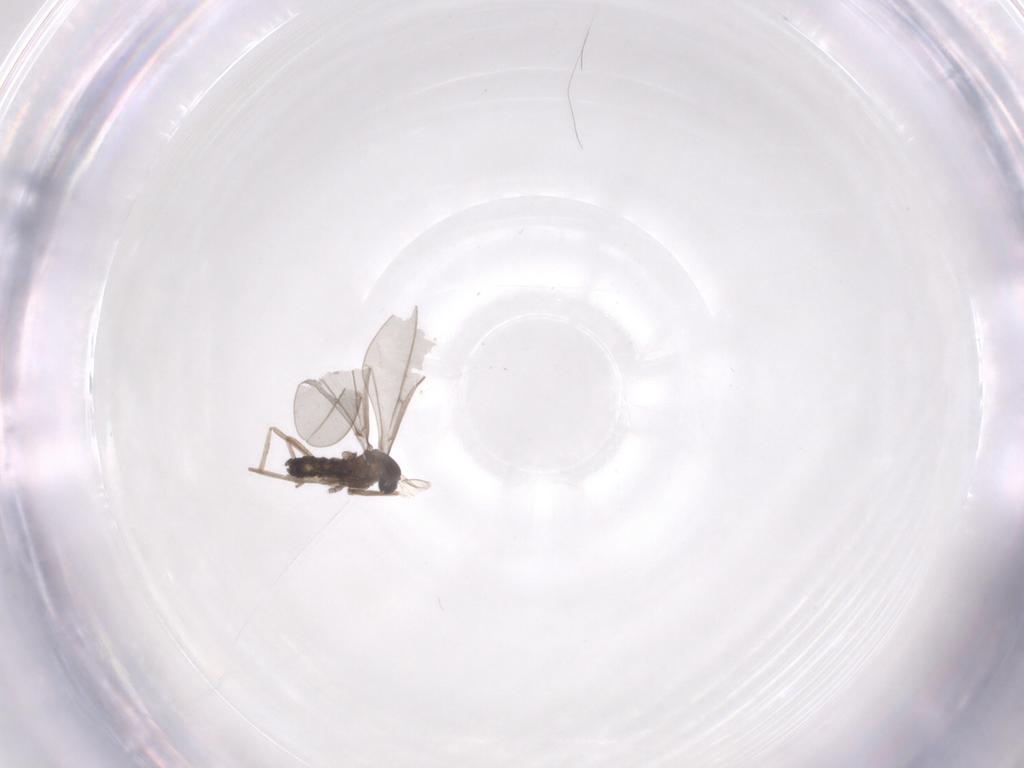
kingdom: Animalia
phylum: Arthropoda
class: Insecta
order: Diptera
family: Cecidomyiidae
